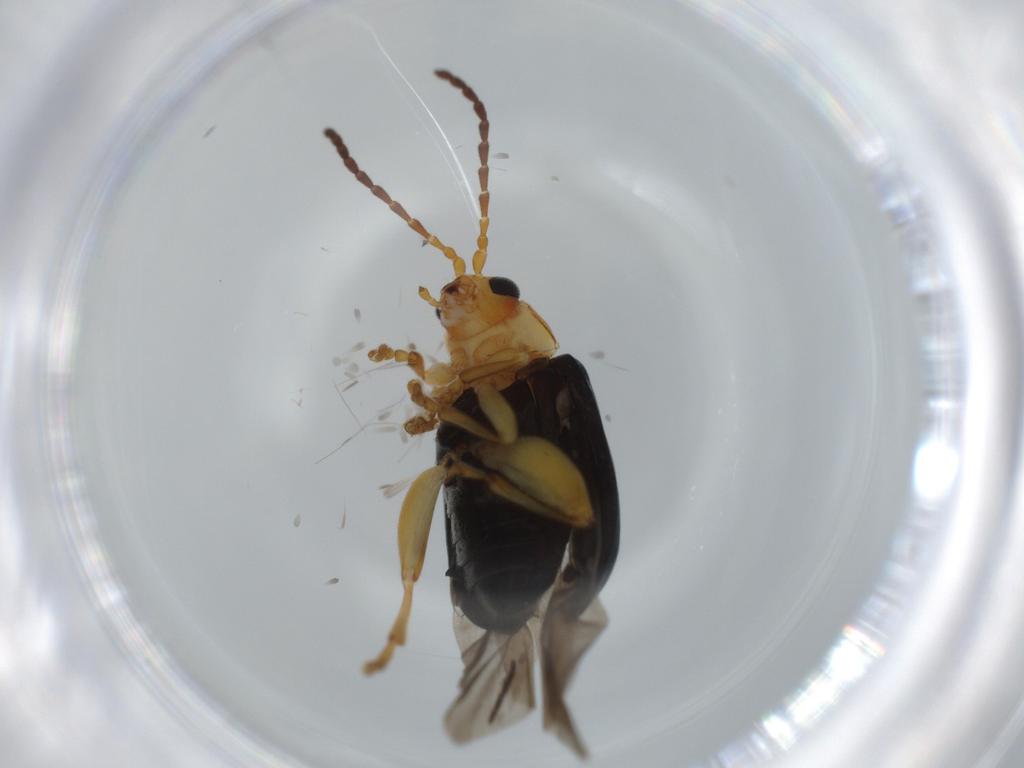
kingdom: Animalia
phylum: Arthropoda
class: Insecta
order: Coleoptera
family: Chrysomelidae
